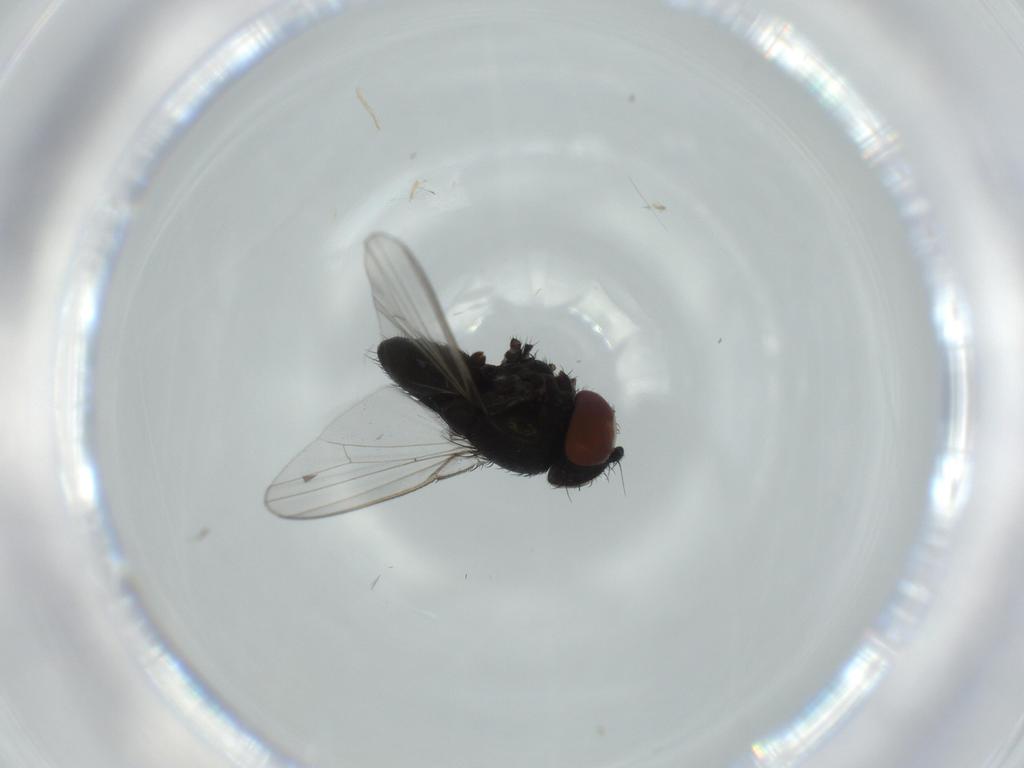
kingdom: Animalia
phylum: Arthropoda
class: Insecta
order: Diptera
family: Milichiidae
